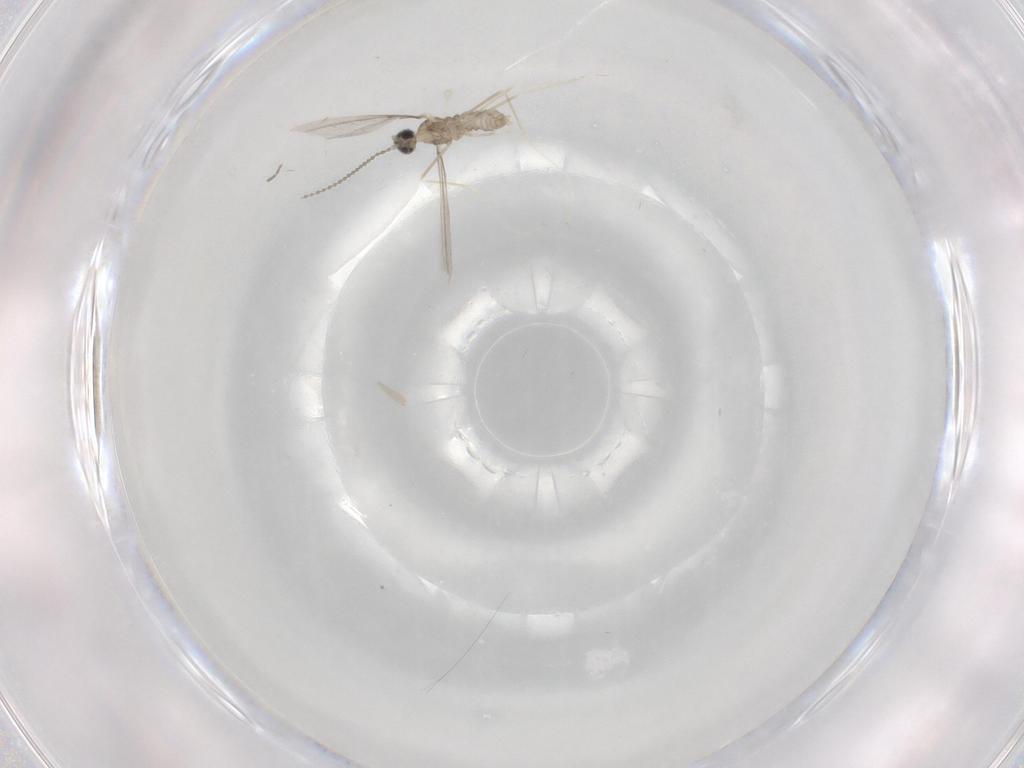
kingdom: Animalia
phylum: Arthropoda
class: Insecta
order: Diptera
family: Cecidomyiidae
